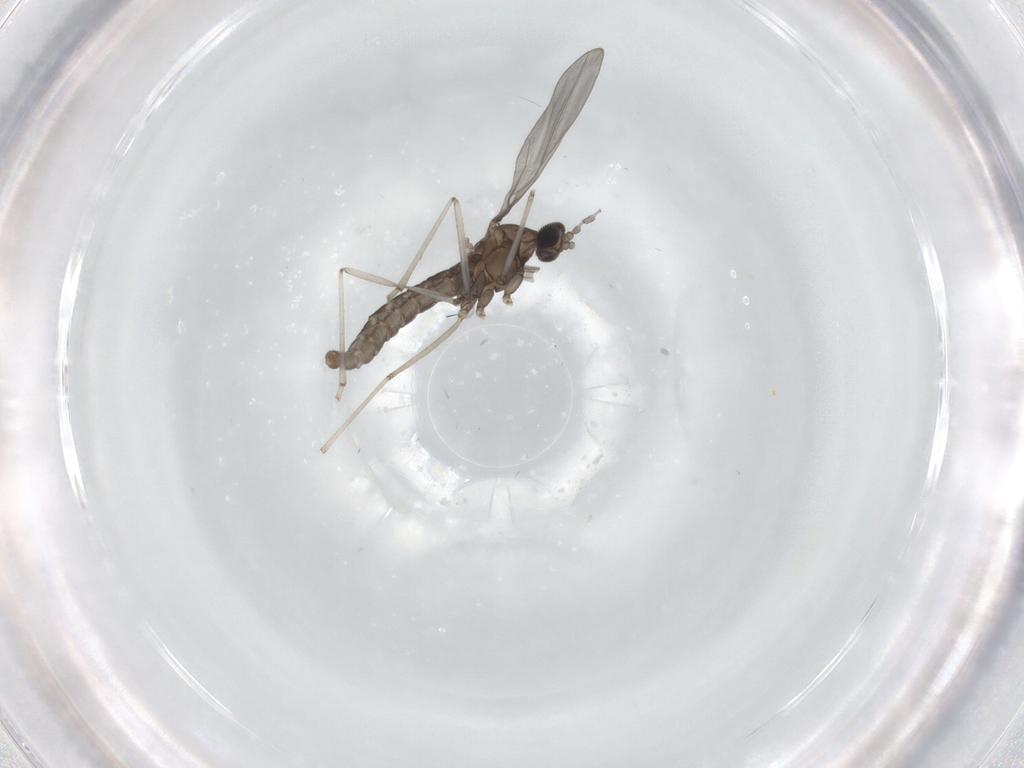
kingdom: Animalia
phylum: Arthropoda
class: Insecta
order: Diptera
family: Cecidomyiidae
